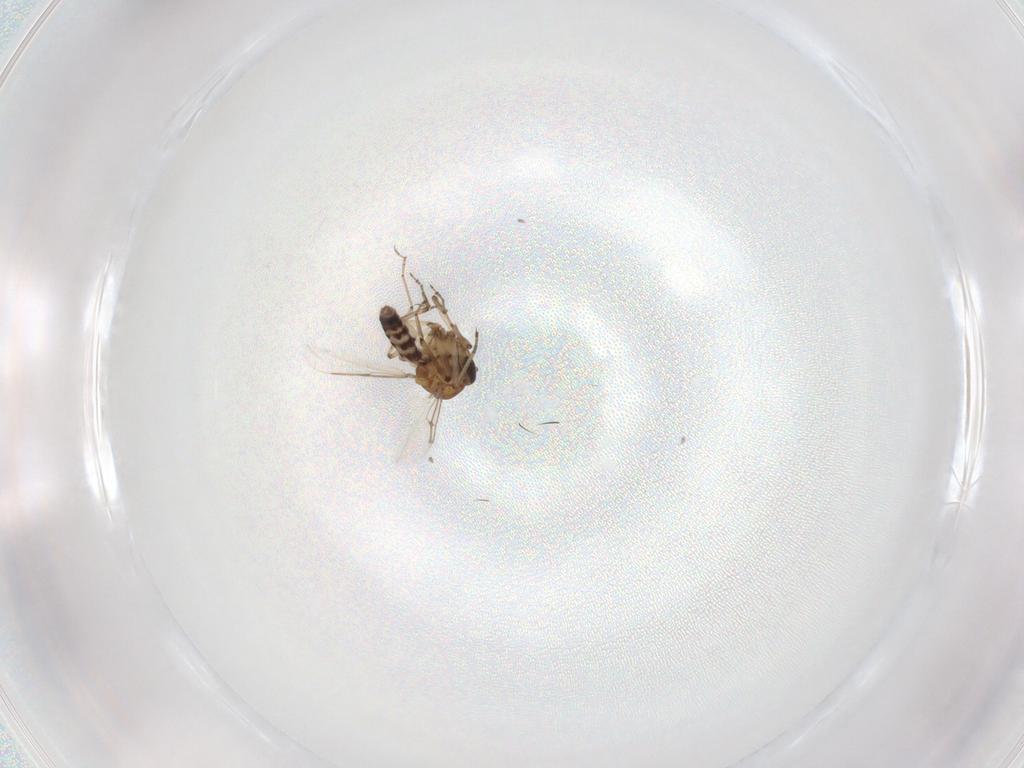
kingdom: Animalia
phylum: Arthropoda
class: Insecta
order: Diptera
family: Ceratopogonidae
